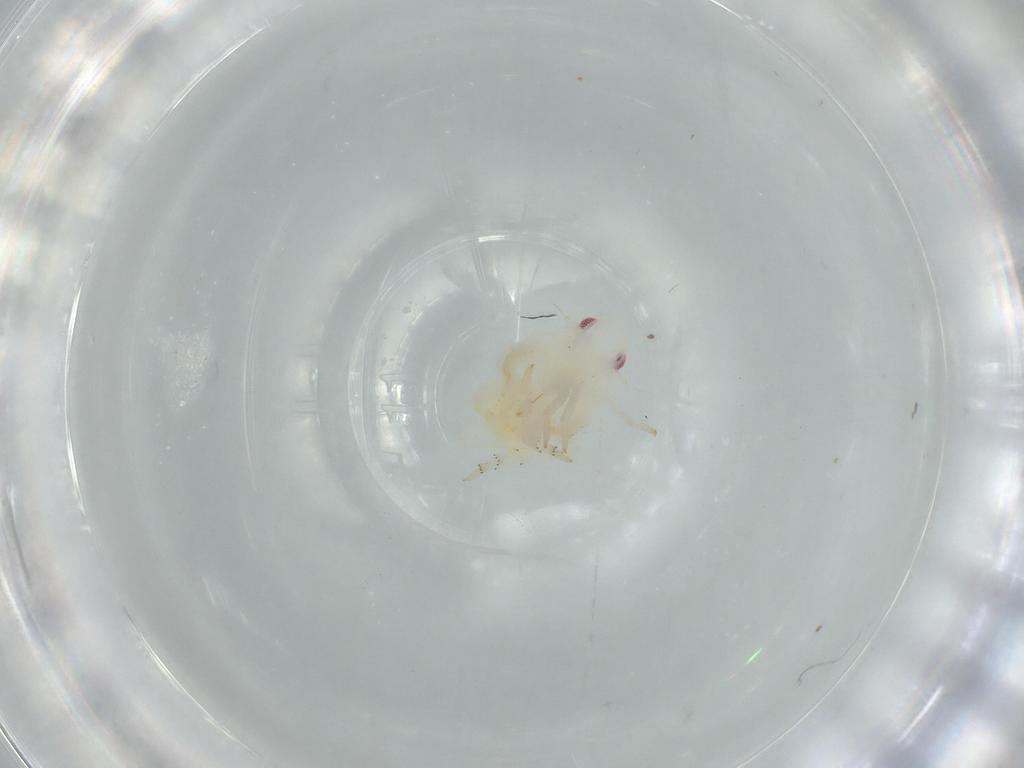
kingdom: Animalia
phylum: Arthropoda
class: Insecta
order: Hemiptera
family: Flatidae
